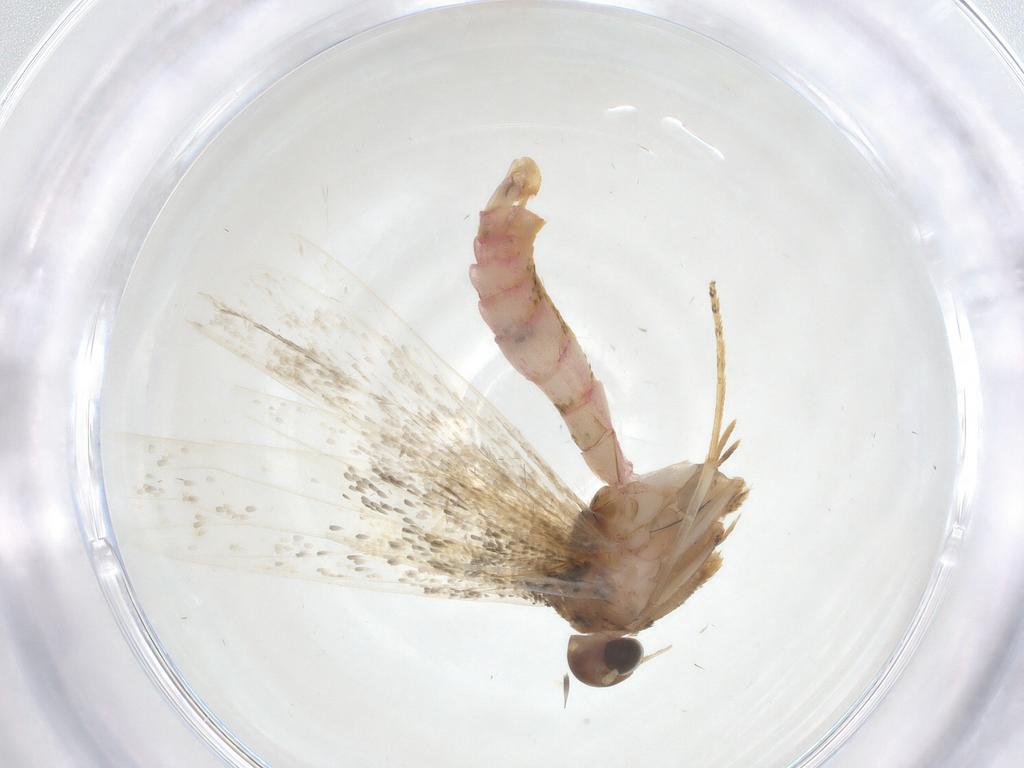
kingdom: Animalia
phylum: Arthropoda
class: Insecta
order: Lepidoptera
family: Crambidae
